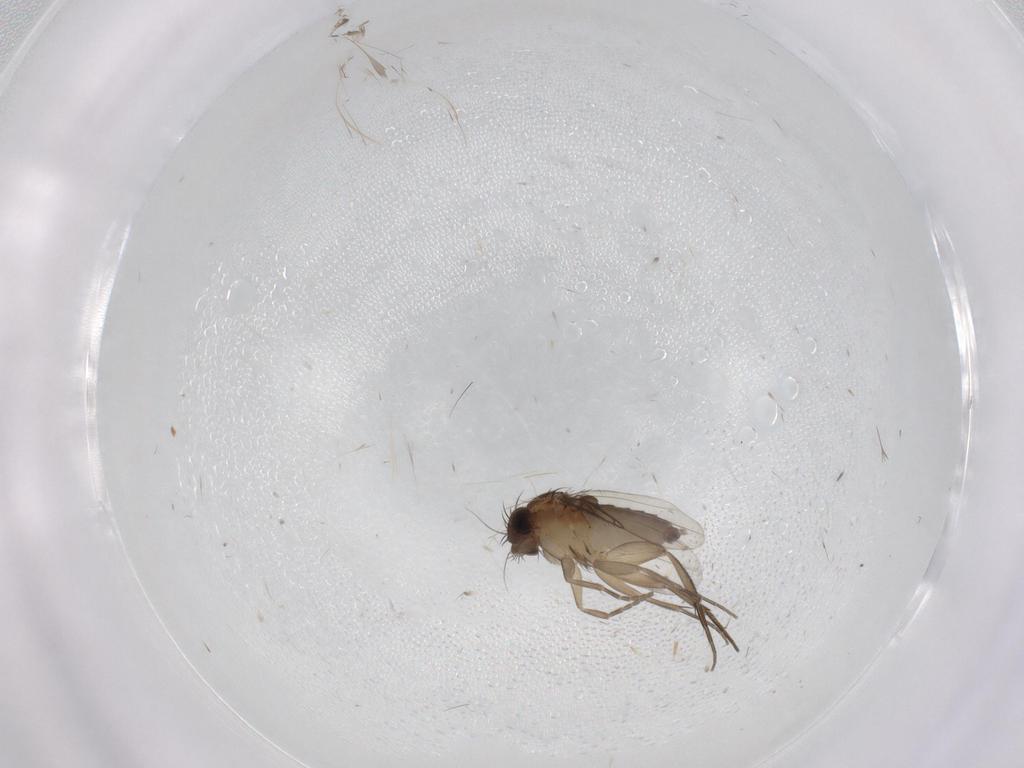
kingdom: Animalia
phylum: Arthropoda
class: Insecta
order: Diptera
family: Phoridae
